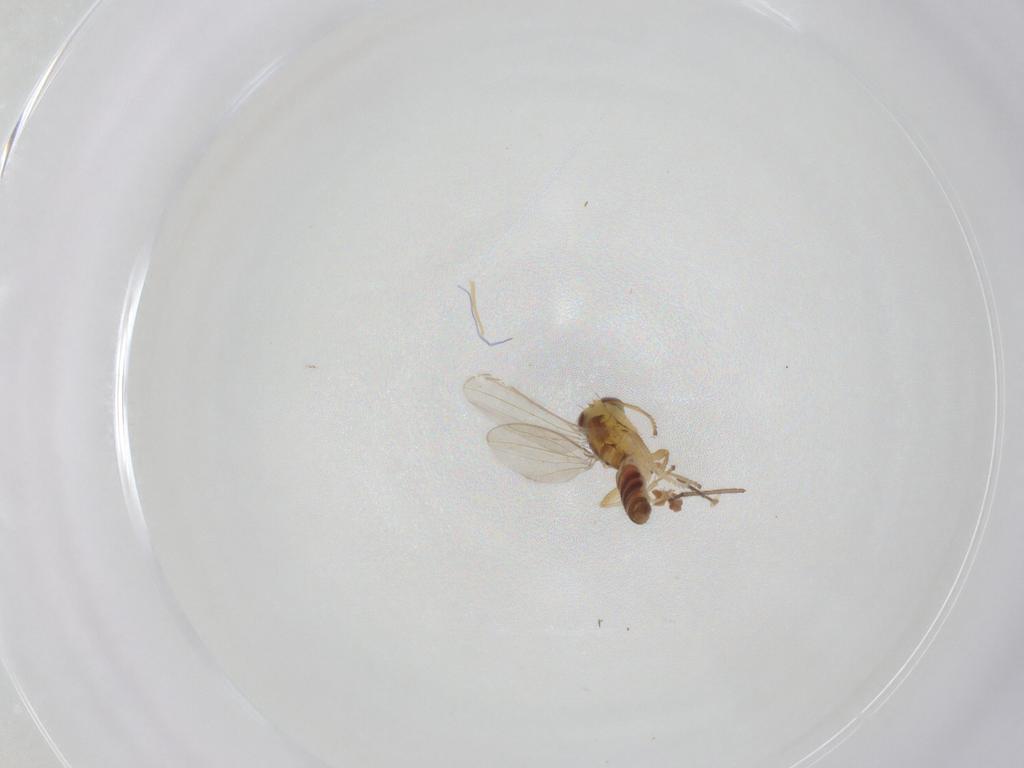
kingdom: Animalia
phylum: Arthropoda
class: Insecta
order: Diptera
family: Periscelididae
